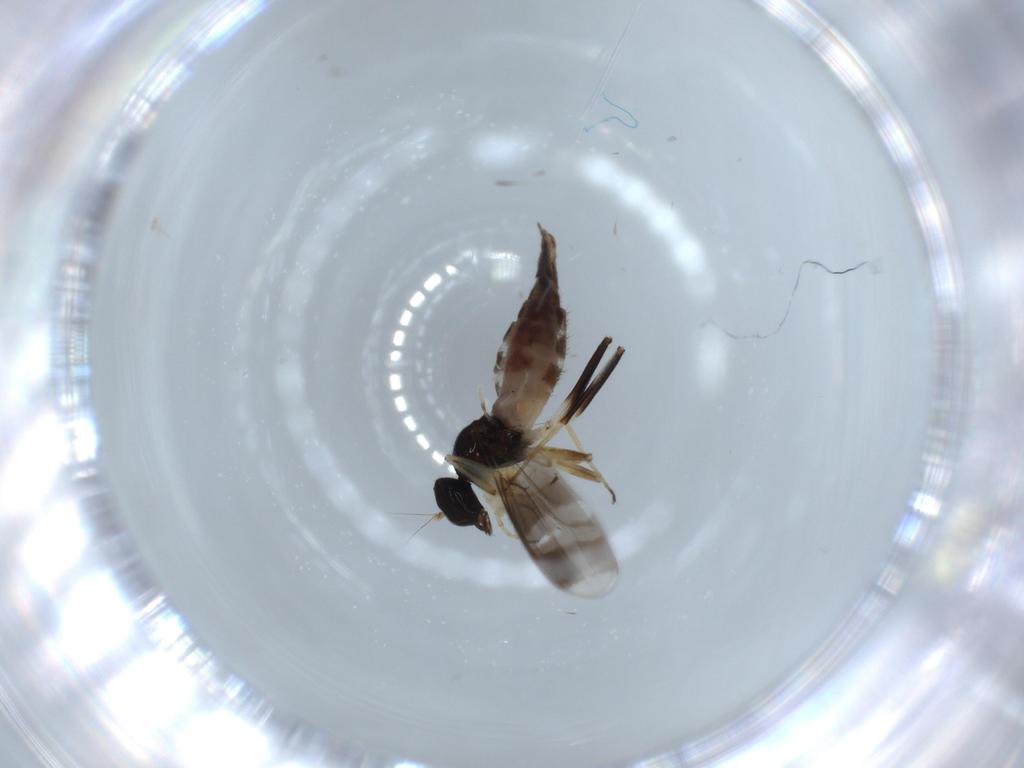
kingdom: Animalia
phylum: Arthropoda
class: Insecta
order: Diptera
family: Hybotidae
